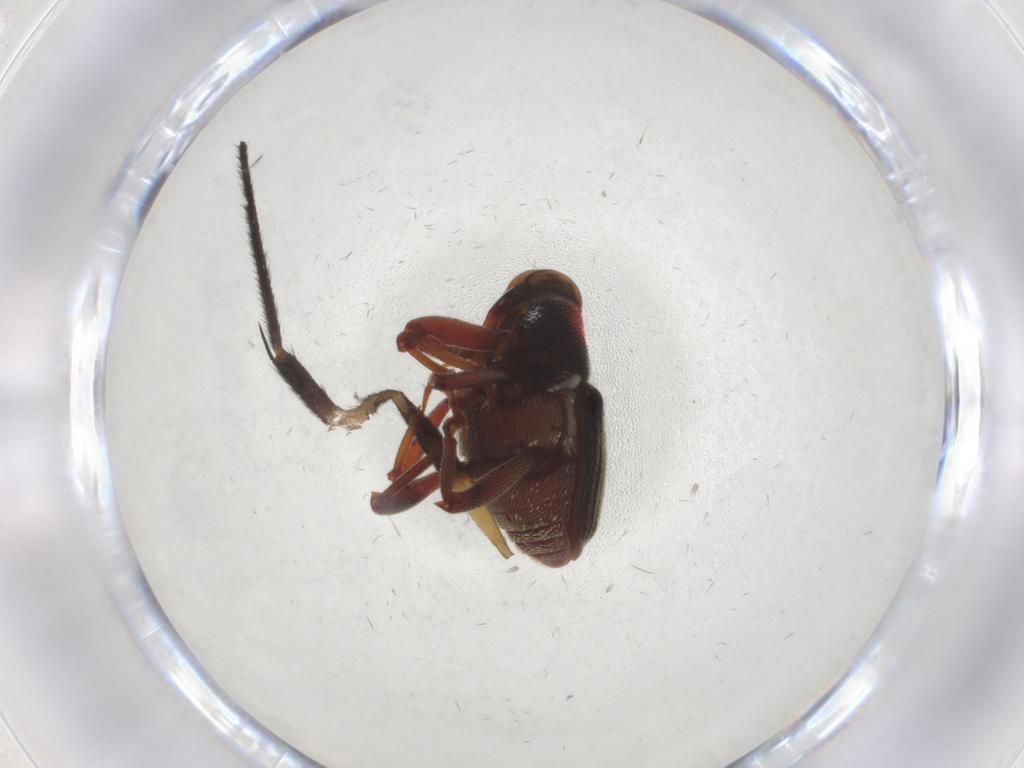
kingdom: Animalia
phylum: Arthropoda
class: Insecta
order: Coleoptera
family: Curculionidae
